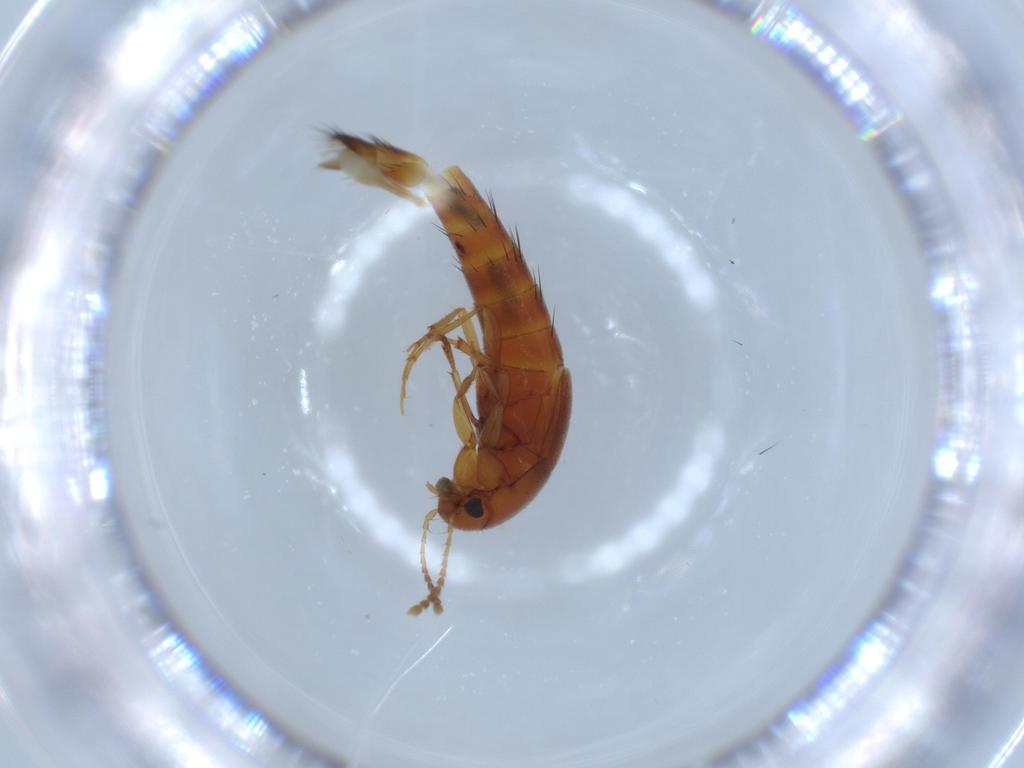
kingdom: Animalia
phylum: Arthropoda
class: Insecta
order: Coleoptera
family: Staphylinidae
